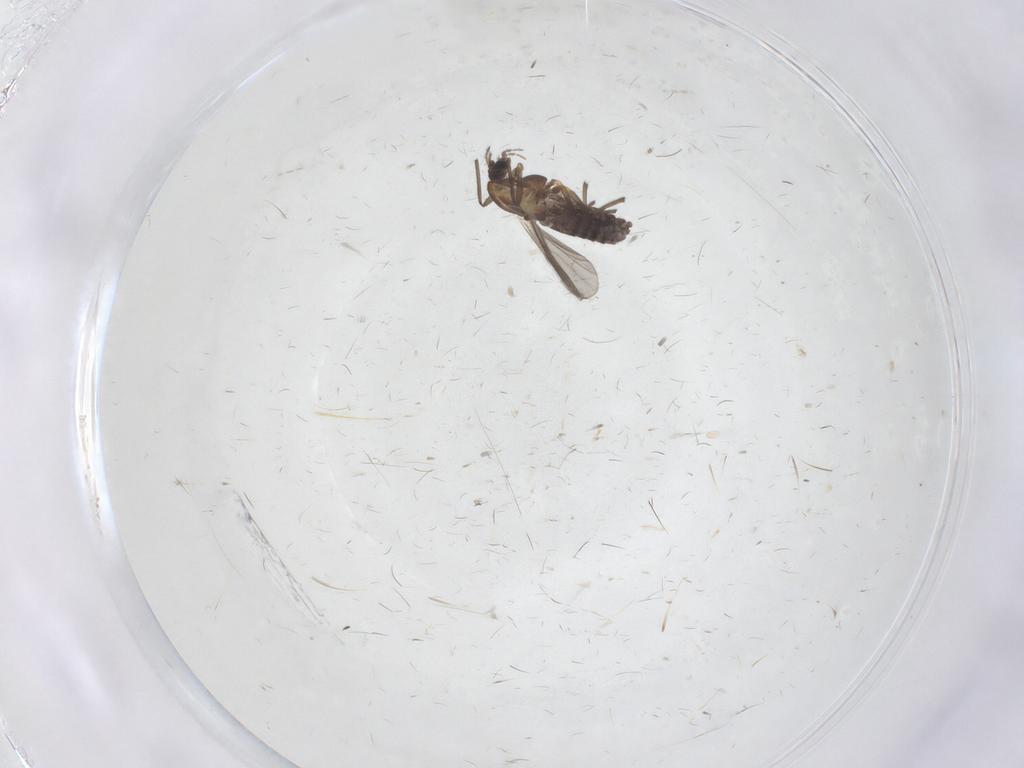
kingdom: Animalia
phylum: Arthropoda
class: Insecta
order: Diptera
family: Chironomidae
